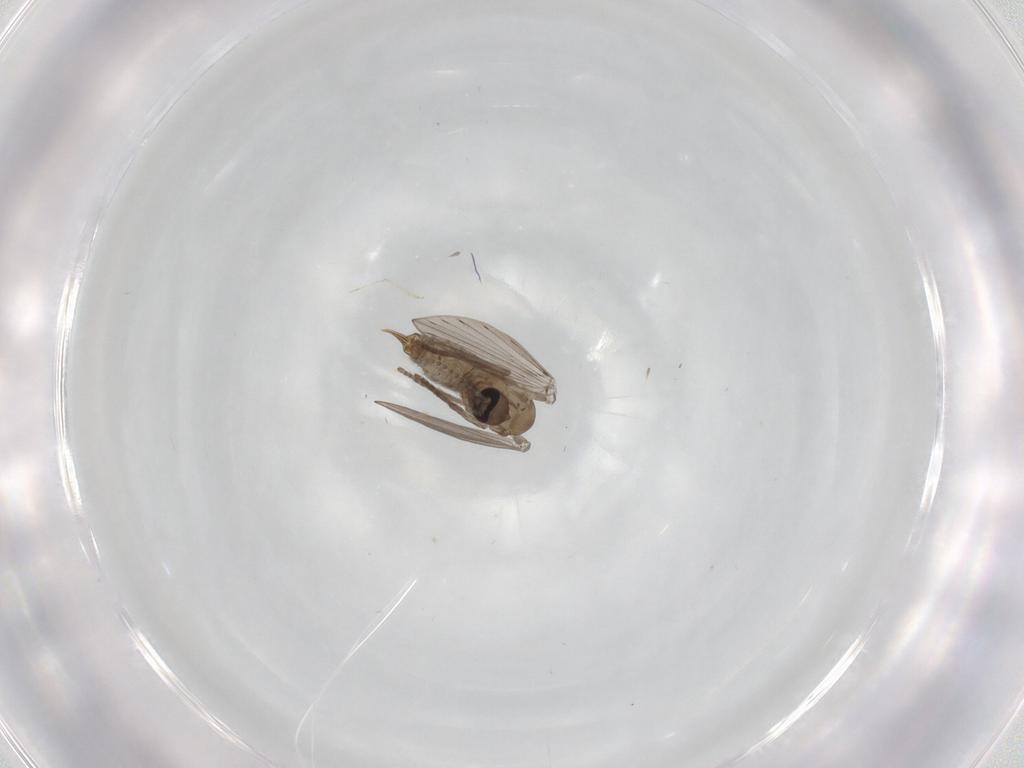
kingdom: Animalia
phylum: Arthropoda
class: Insecta
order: Diptera
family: Psychodidae
